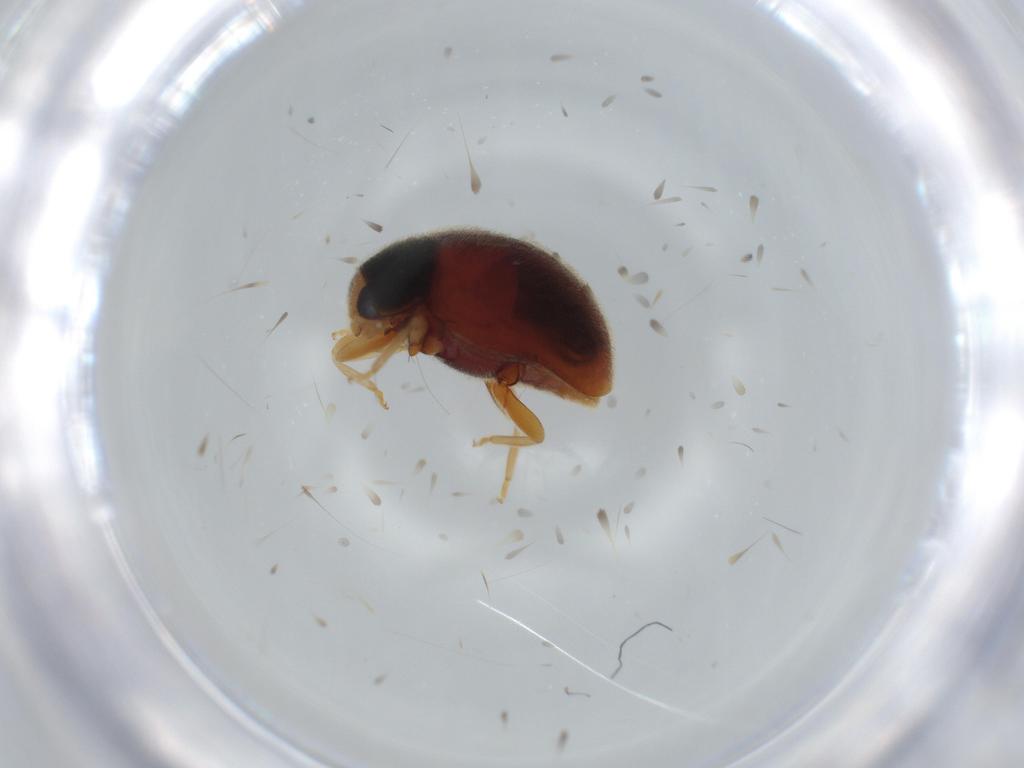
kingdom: Animalia
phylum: Arthropoda
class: Insecta
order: Coleoptera
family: Coccinellidae
